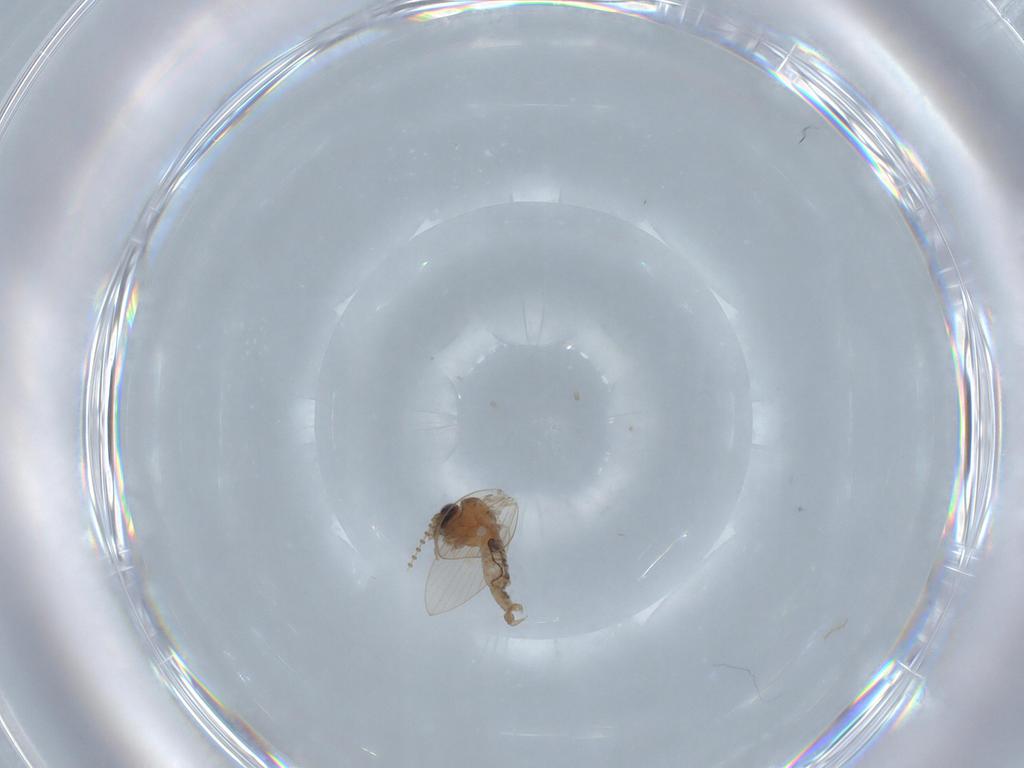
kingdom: Animalia
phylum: Arthropoda
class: Insecta
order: Diptera
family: Psychodidae
